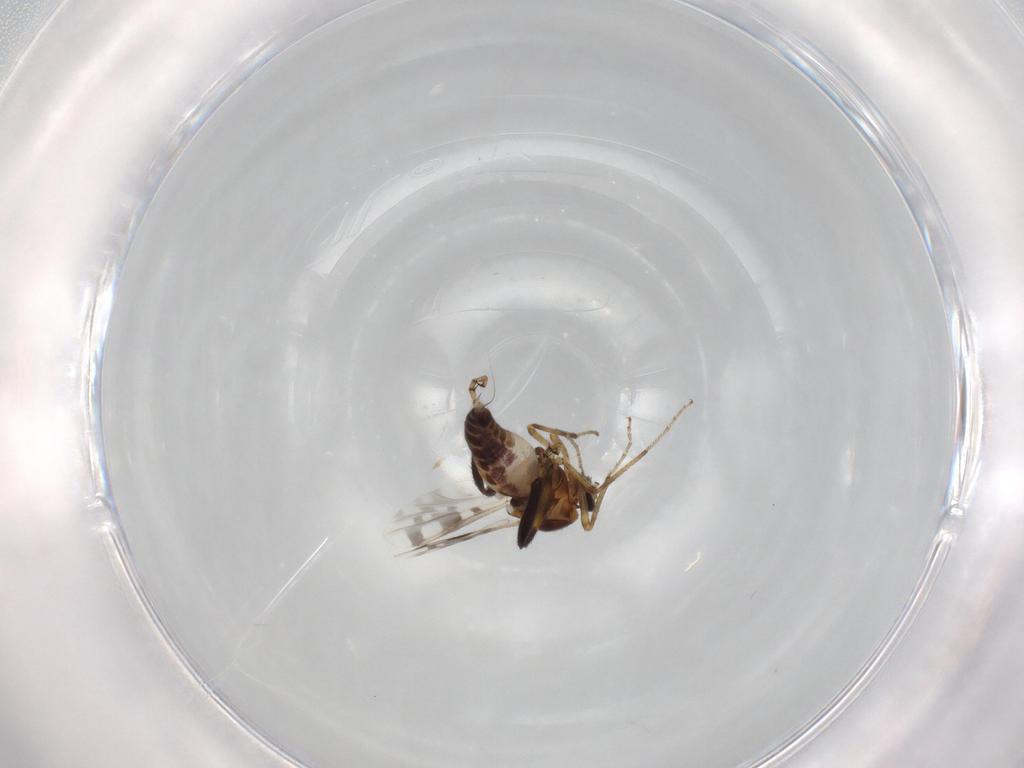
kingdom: Animalia
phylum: Arthropoda
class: Insecta
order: Diptera
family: Ceratopogonidae
